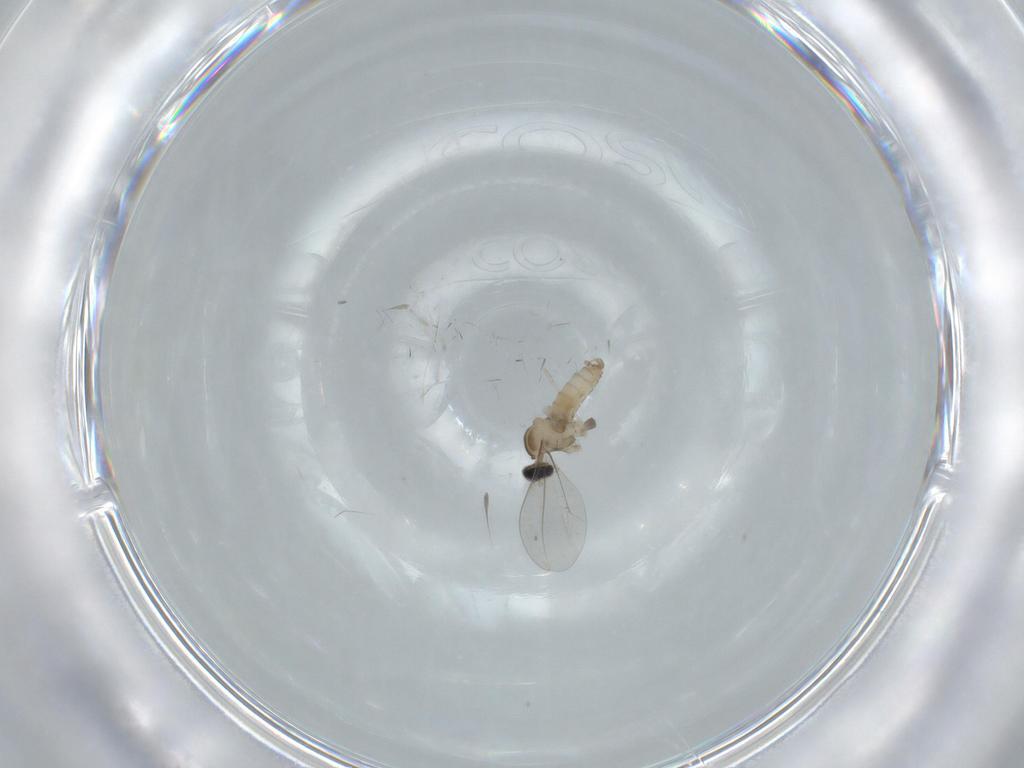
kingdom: Animalia
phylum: Arthropoda
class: Insecta
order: Diptera
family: Cecidomyiidae
